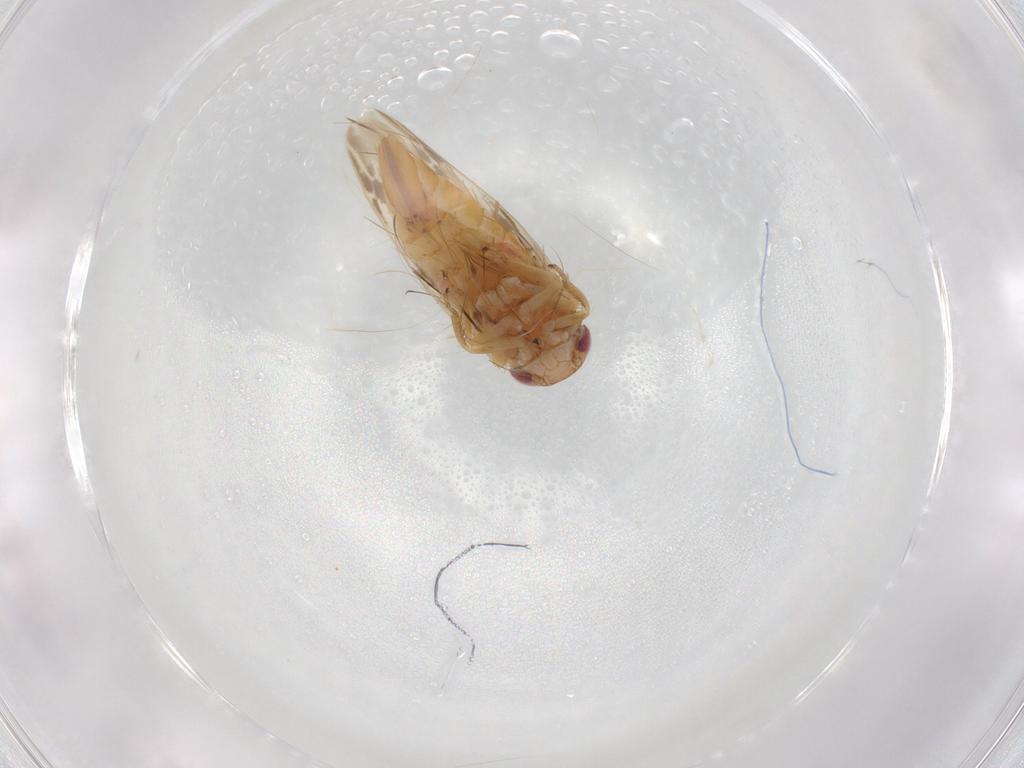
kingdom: Animalia
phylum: Arthropoda
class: Insecta
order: Hemiptera
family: Cicadellidae
